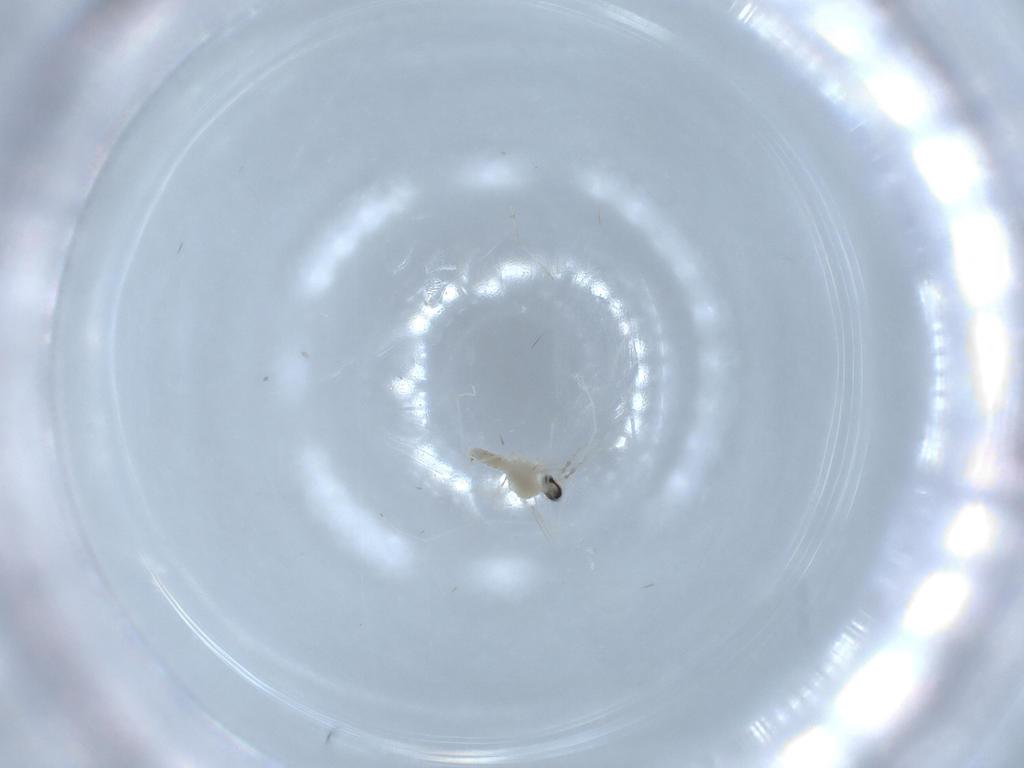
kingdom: Animalia
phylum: Arthropoda
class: Insecta
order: Diptera
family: Cecidomyiidae
